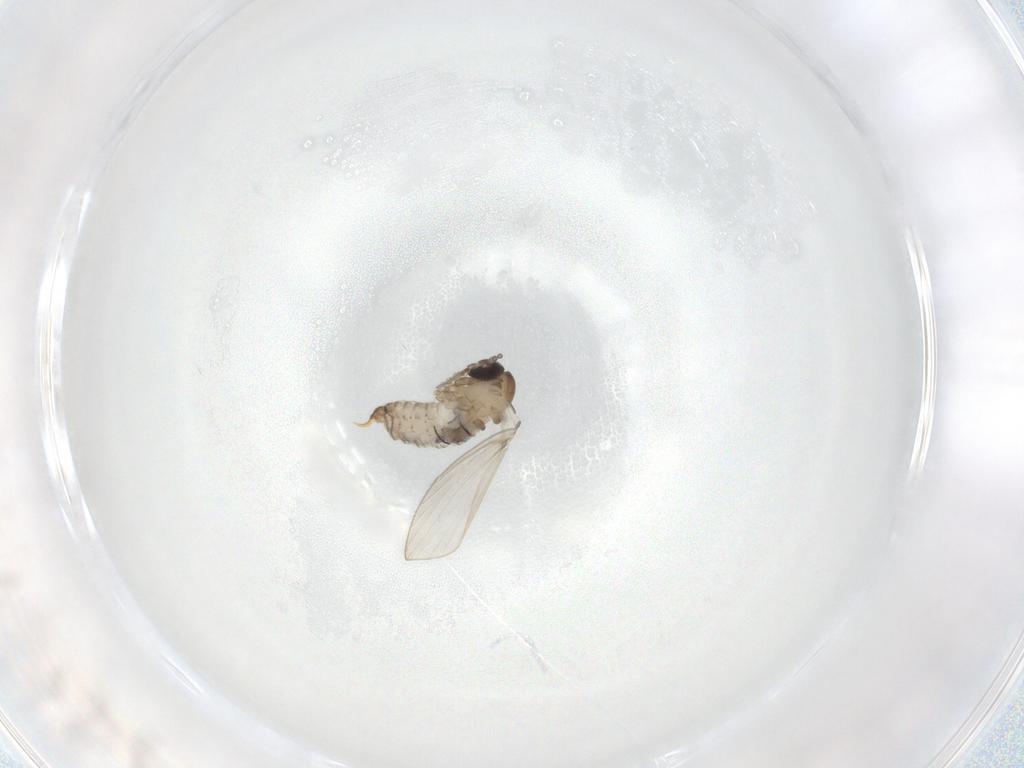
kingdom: Animalia
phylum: Arthropoda
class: Insecta
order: Diptera
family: Psychodidae
